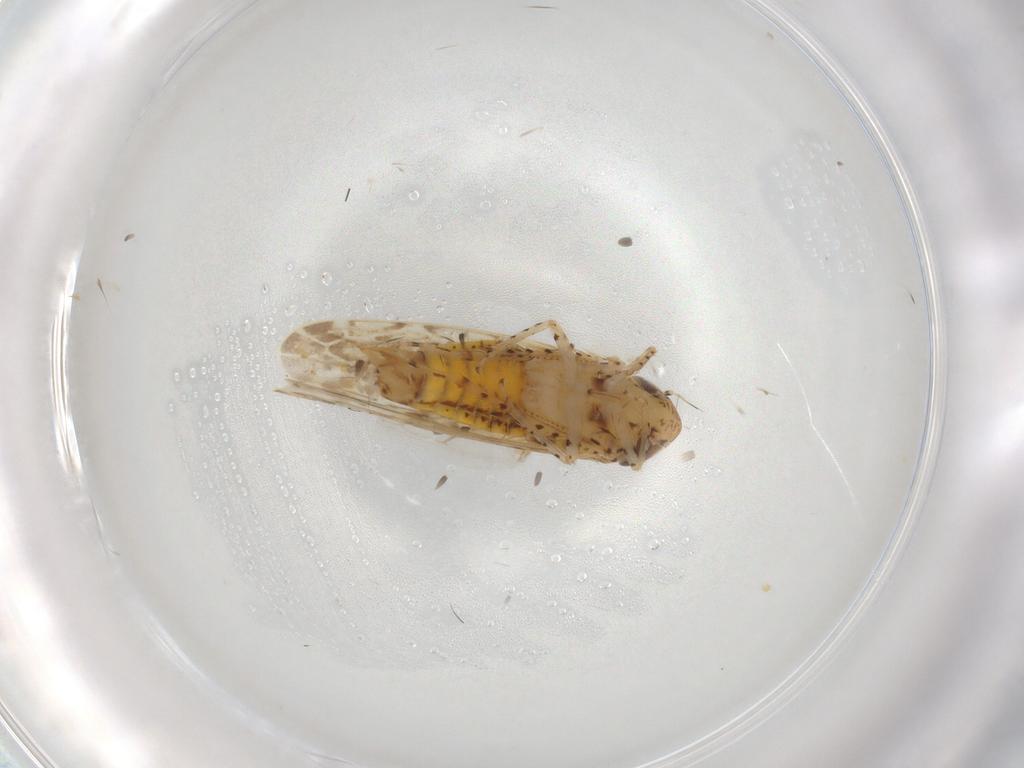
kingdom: Animalia
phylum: Arthropoda
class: Insecta
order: Hemiptera
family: Cicadellidae
